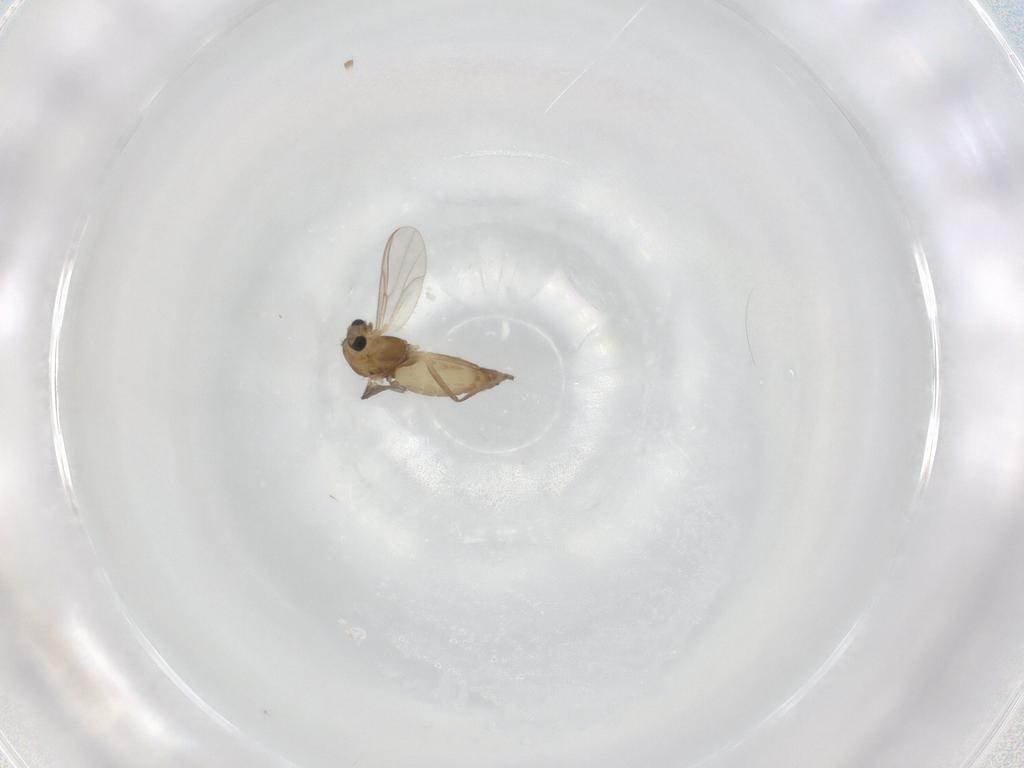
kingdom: Animalia
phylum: Arthropoda
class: Insecta
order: Diptera
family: Chironomidae
